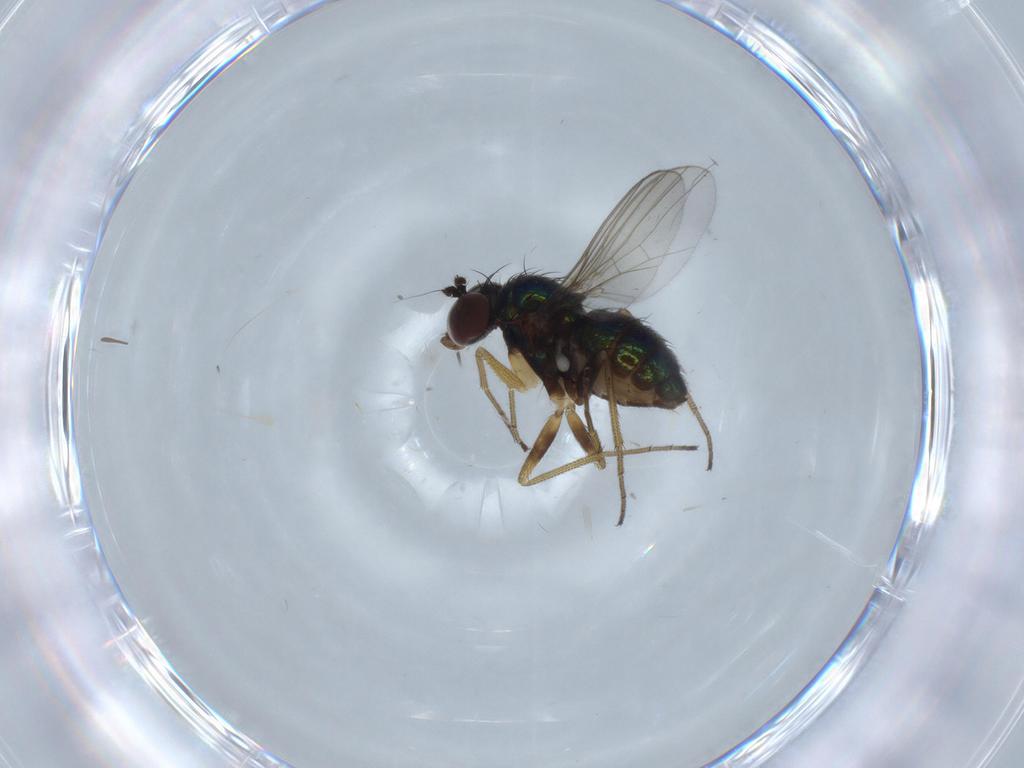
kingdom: Animalia
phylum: Arthropoda
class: Insecta
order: Diptera
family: Dolichopodidae
